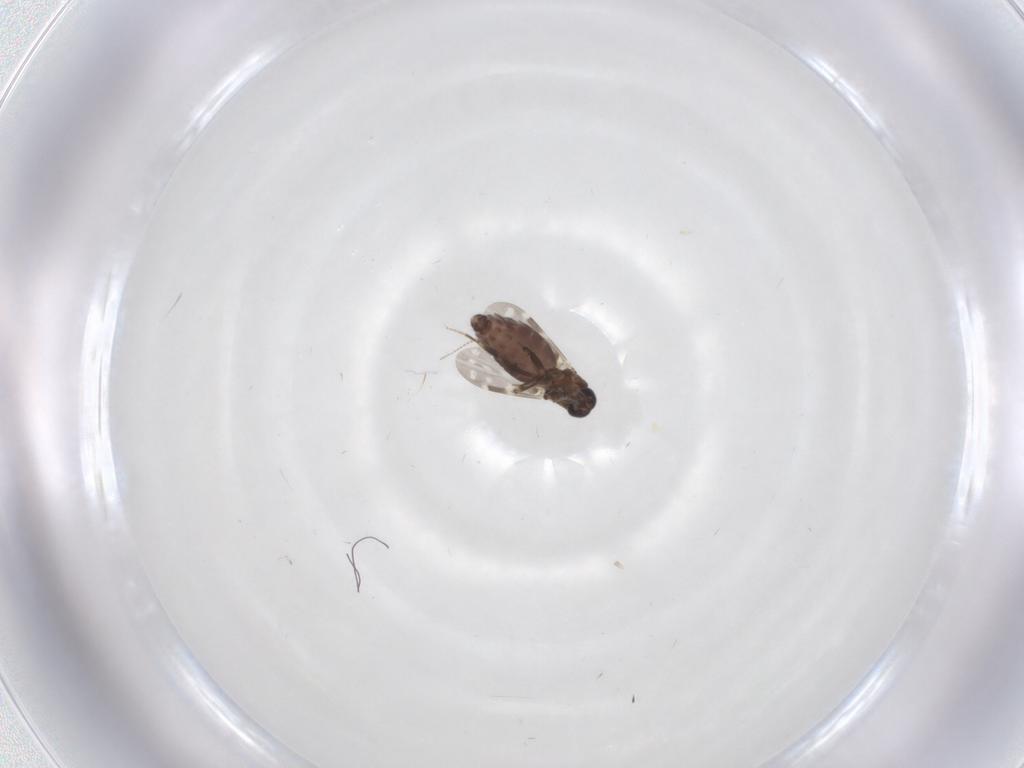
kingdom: Animalia
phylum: Arthropoda
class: Insecta
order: Diptera
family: Chironomidae
